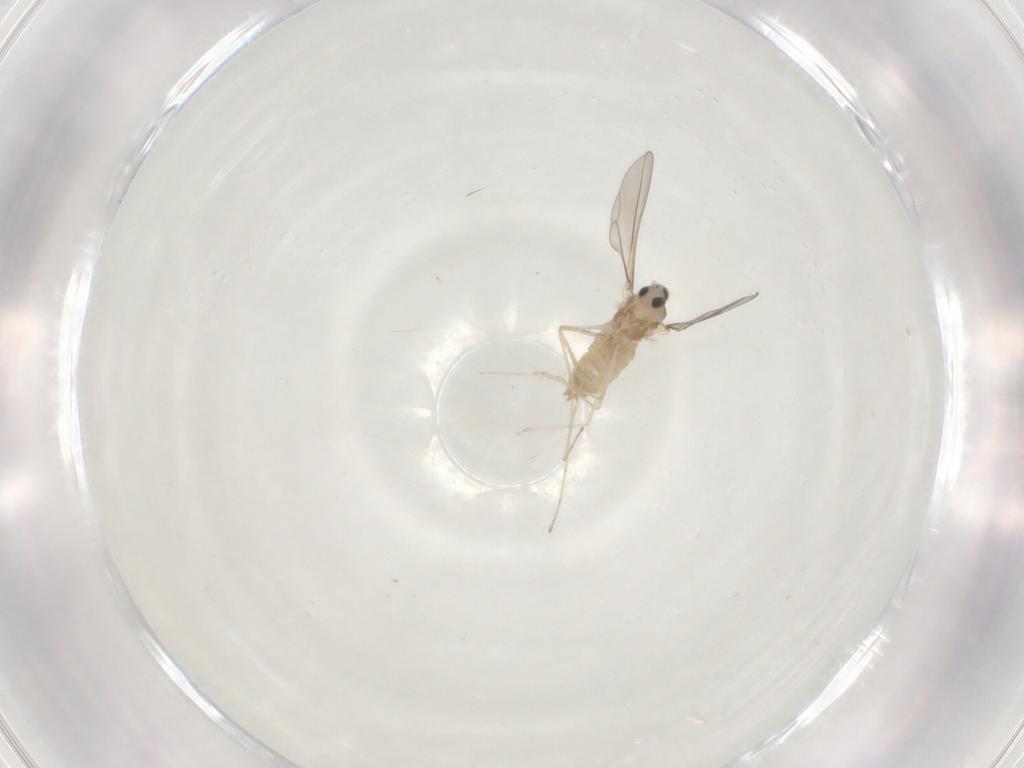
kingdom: Animalia
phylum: Arthropoda
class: Insecta
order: Diptera
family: Cecidomyiidae
